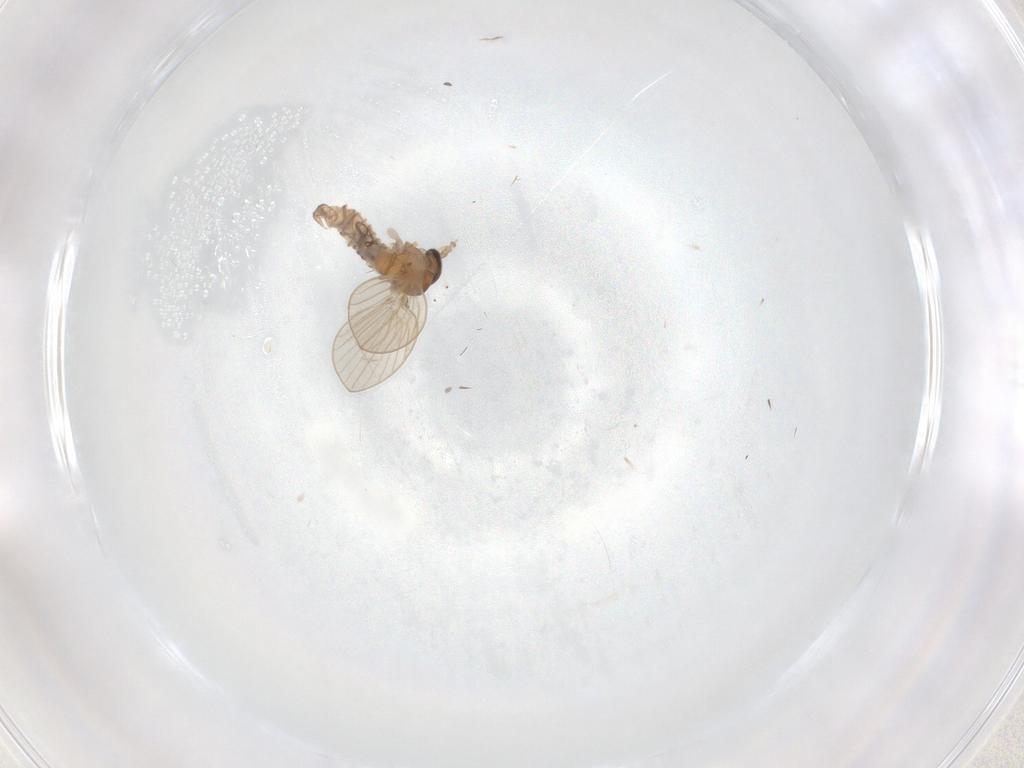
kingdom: Animalia
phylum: Arthropoda
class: Insecta
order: Diptera
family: Psychodidae
